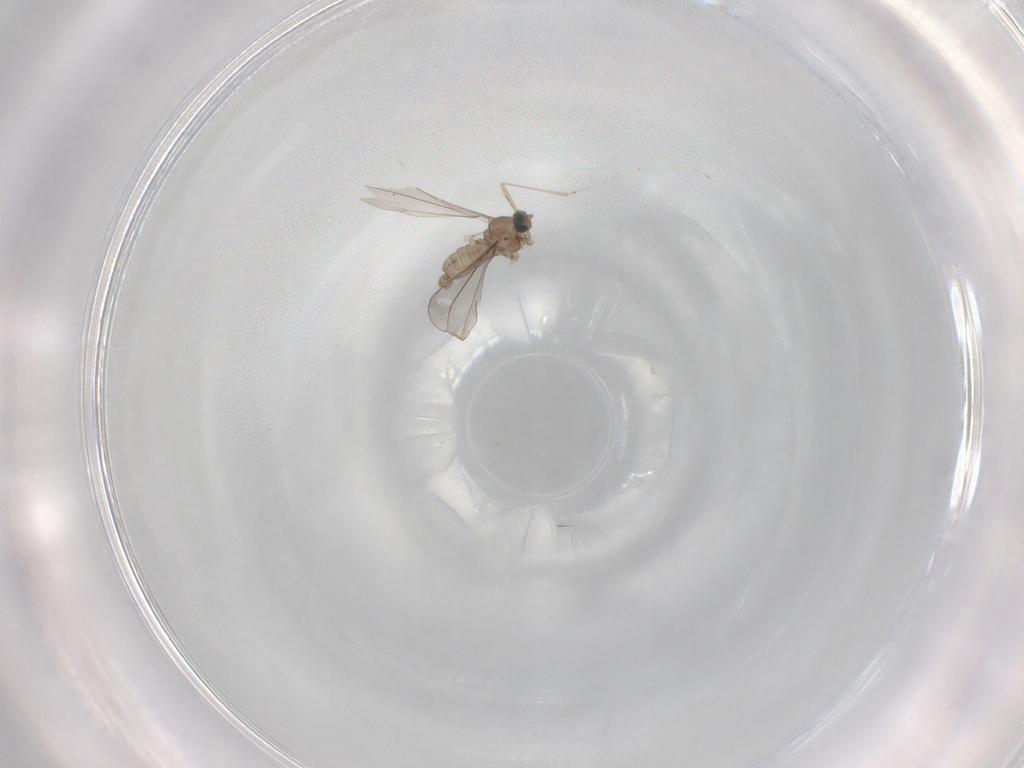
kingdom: Animalia
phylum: Arthropoda
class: Insecta
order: Diptera
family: Cecidomyiidae
